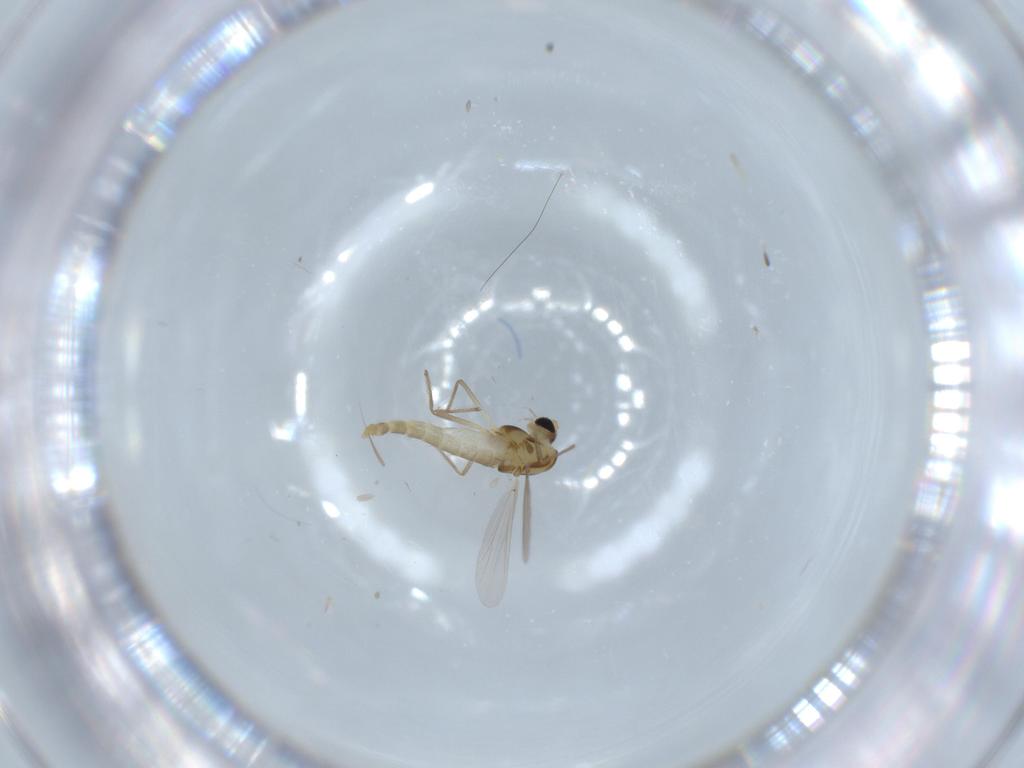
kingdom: Animalia
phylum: Arthropoda
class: Insecta
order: Diptera
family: Chironomidae
